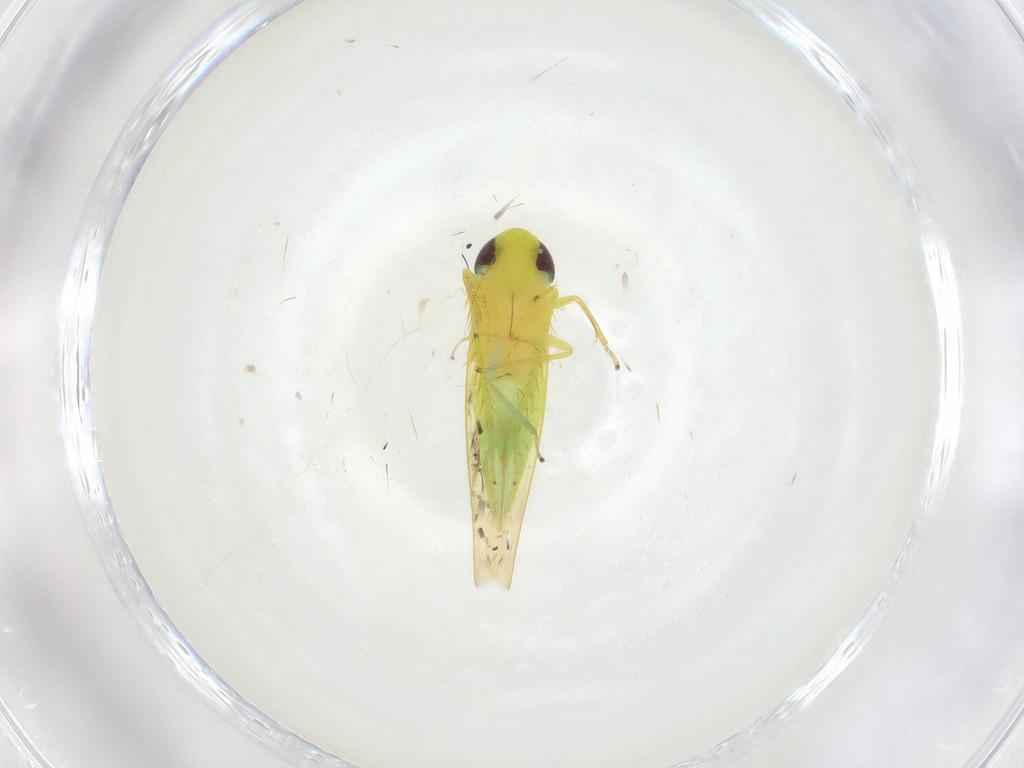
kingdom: Animalia
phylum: Arthropoda
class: Insecta
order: Hemiptera
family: Cicadellidae
